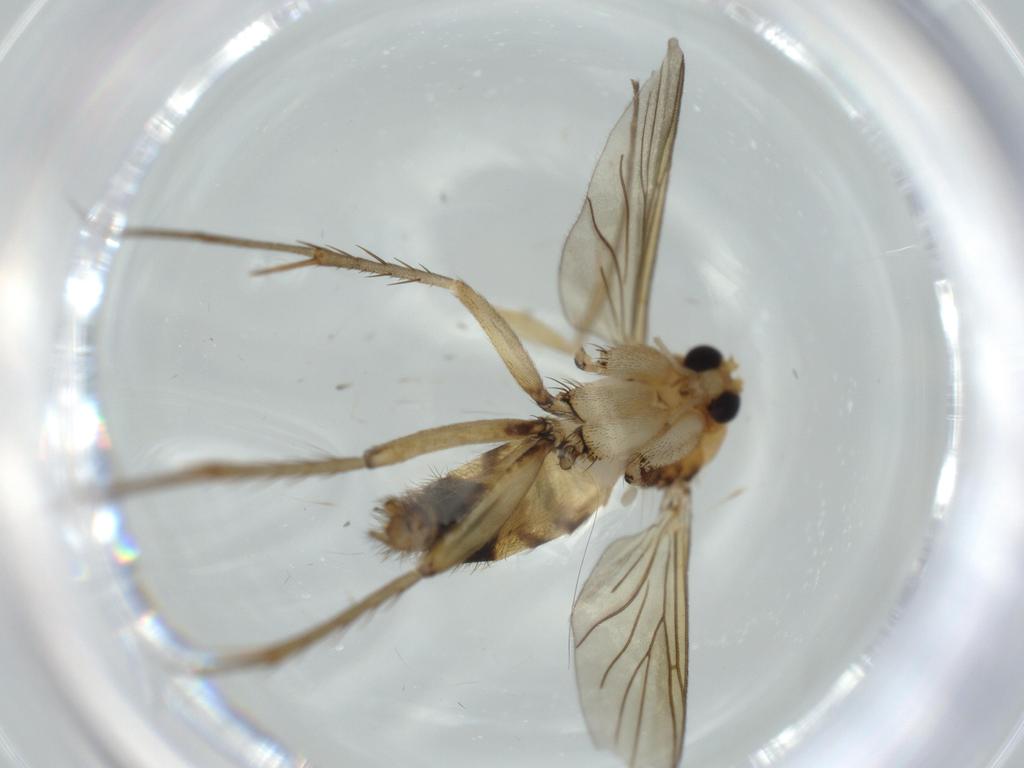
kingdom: Animalia
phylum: Arthropoda
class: Insecta
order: Diptera
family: Mycetophilidae
